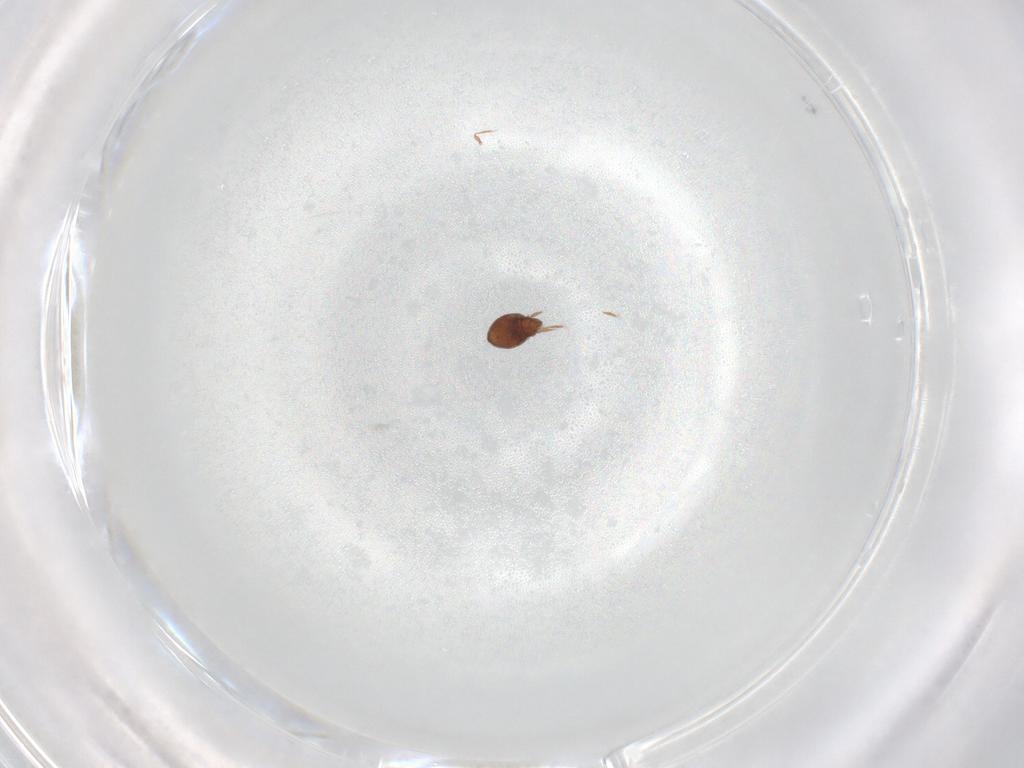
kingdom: Animalia
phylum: Arthropoda
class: Arachnida
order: Sarcoptiformes
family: Oribatulidae
